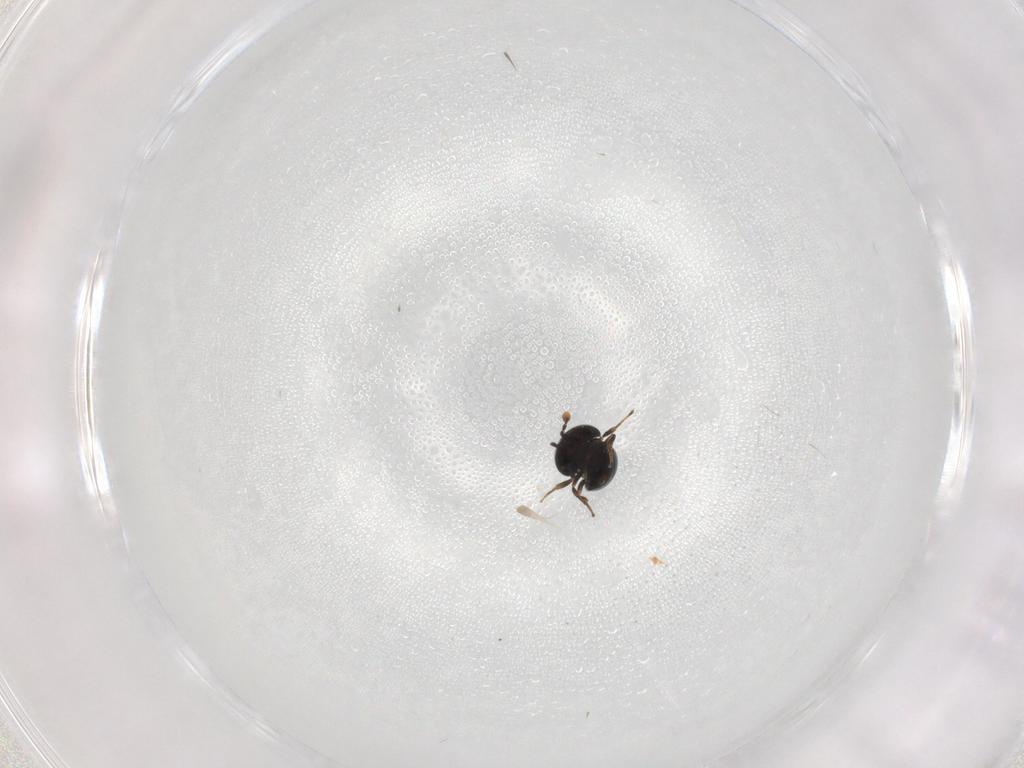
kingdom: Animalia
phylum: Arthropoda
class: Insecta
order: Hymenoptera
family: Scelionidae
